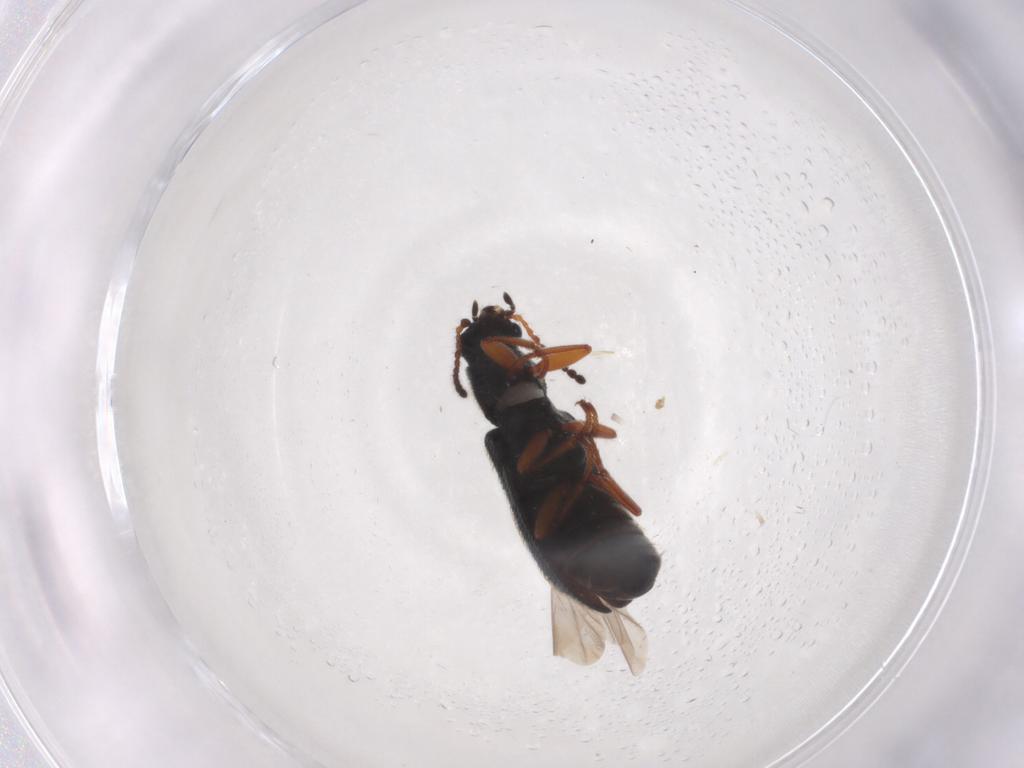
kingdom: Animalia
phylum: Arthropoda
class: Insecta
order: Coleoptera
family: Melyridae
